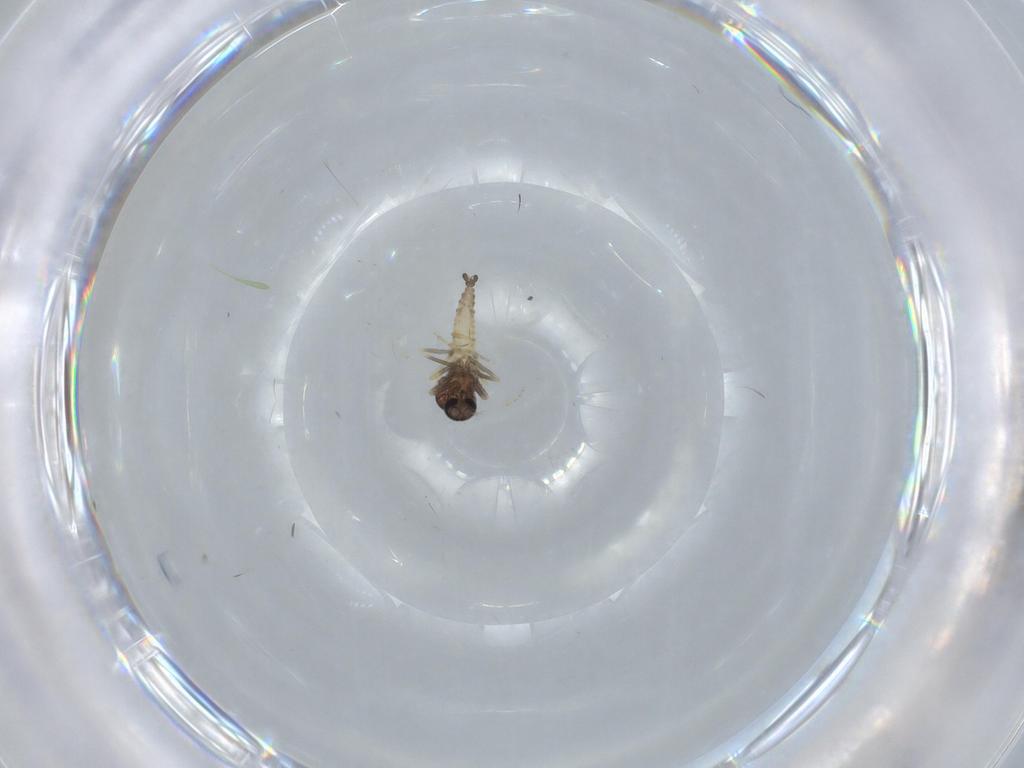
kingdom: Animalia
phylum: Arthropoda
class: Insecta
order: Diptera
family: Ceratopogonidae
